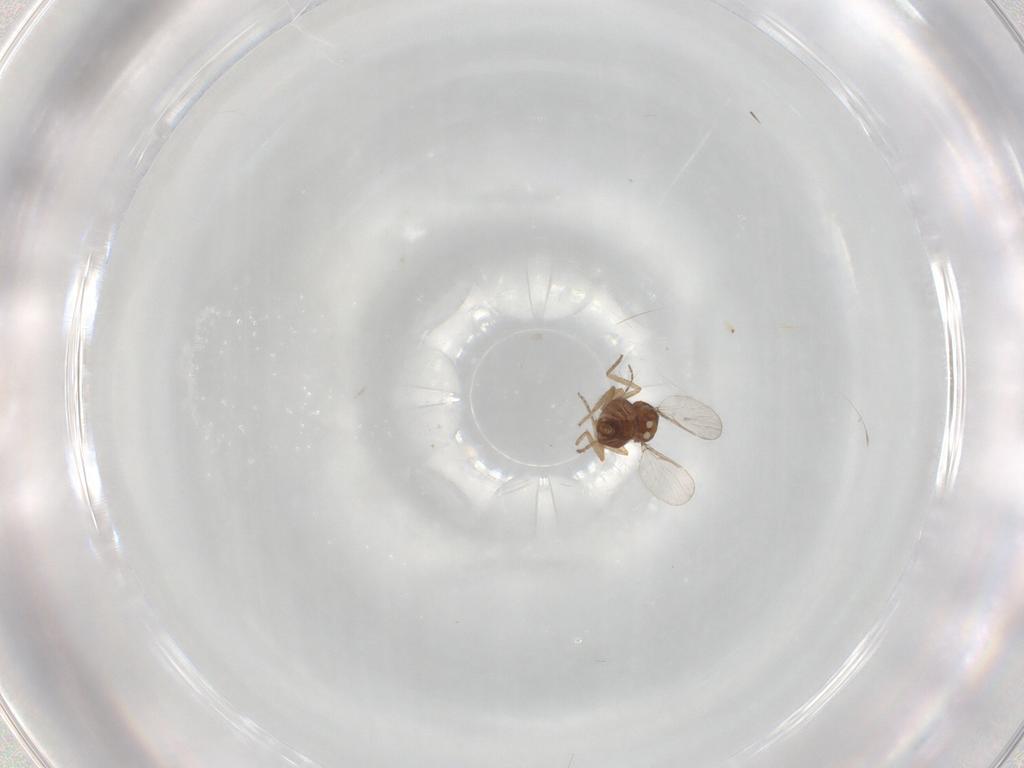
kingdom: Animalia
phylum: Arthropoda
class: Insecta
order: Diptera
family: Ceratopogonidae
